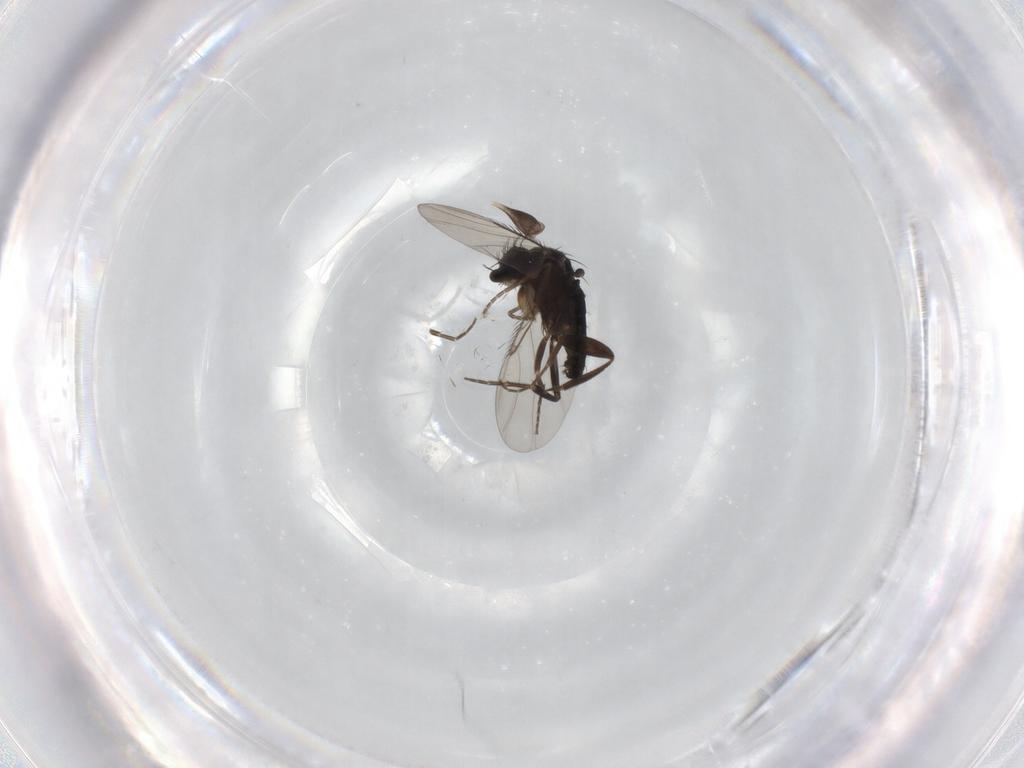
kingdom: Animalia
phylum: Arthropoda
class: Insecta
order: Diptera
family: Phoridae
